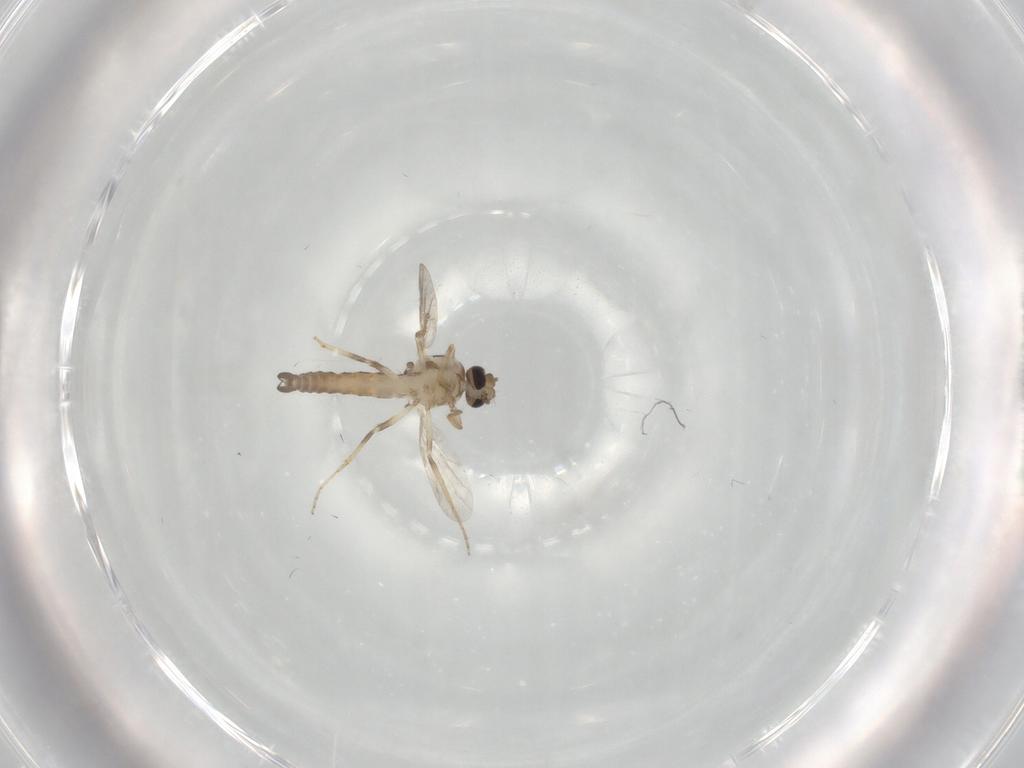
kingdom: Animalia
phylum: Arthropoda
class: Insecta
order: Diptera
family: Ceratopogonidae
